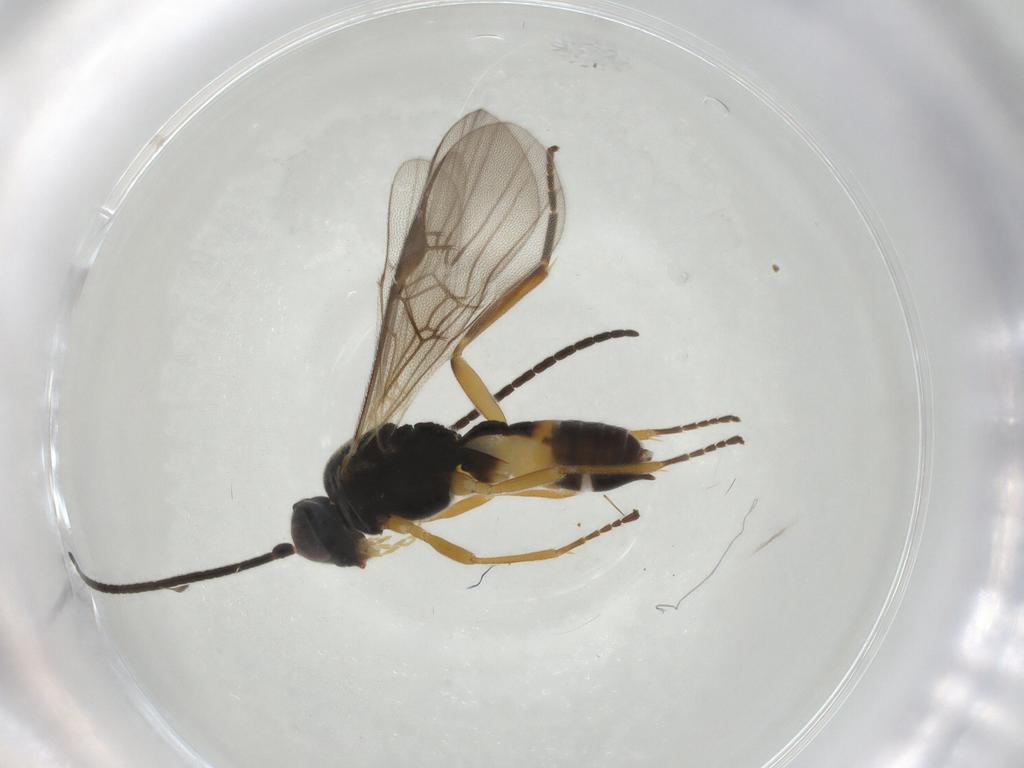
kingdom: Animalia
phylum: Arthropoda
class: Insecta
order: Hymenoptera
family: Braconidae
